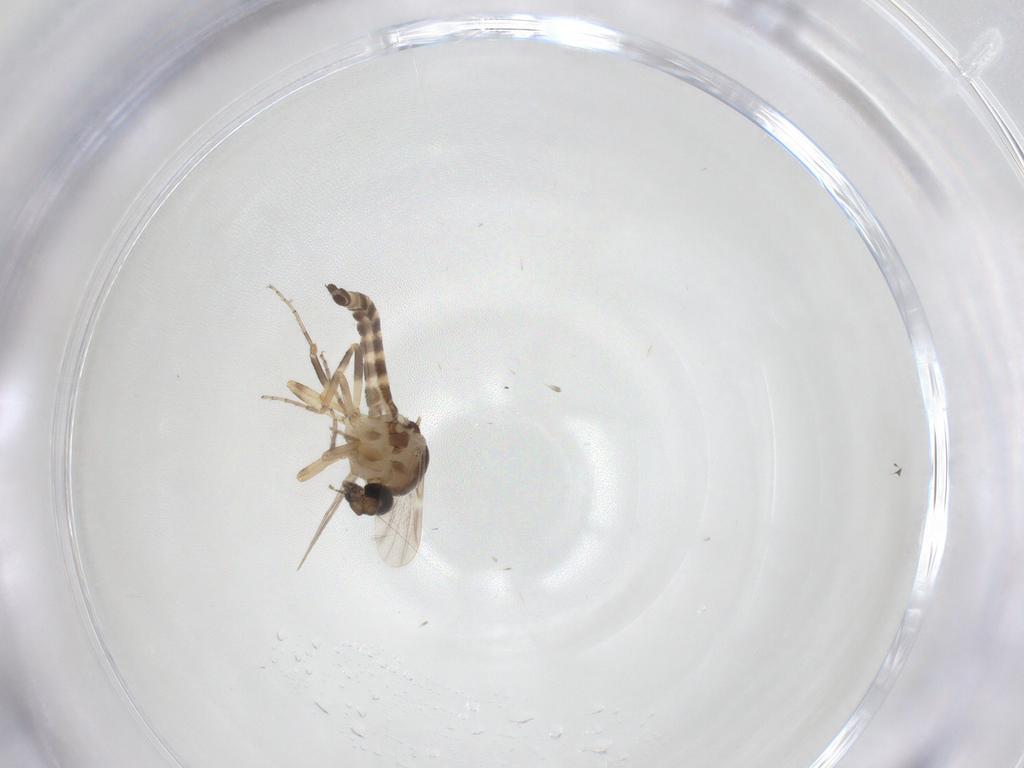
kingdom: Animalia
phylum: Arthropoda
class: Insecta
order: Diptera
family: Ceratopogonidae
